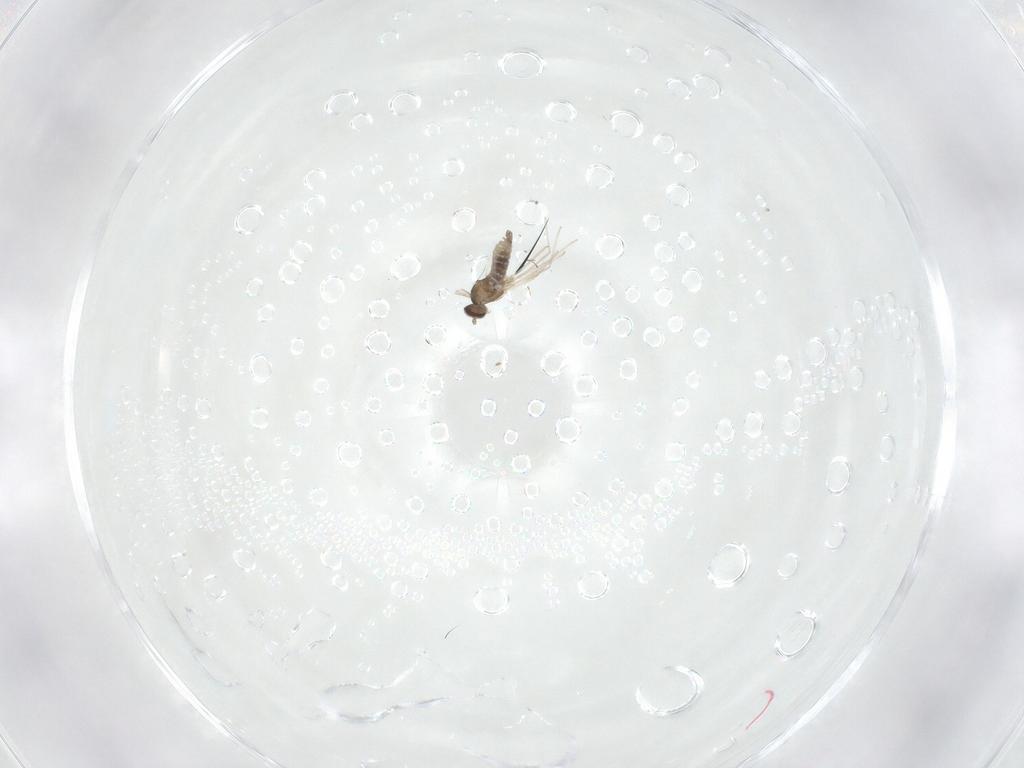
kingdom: Animalia
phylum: Arthropoda
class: Insecta
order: Diptera
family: Cecidomyiidae
